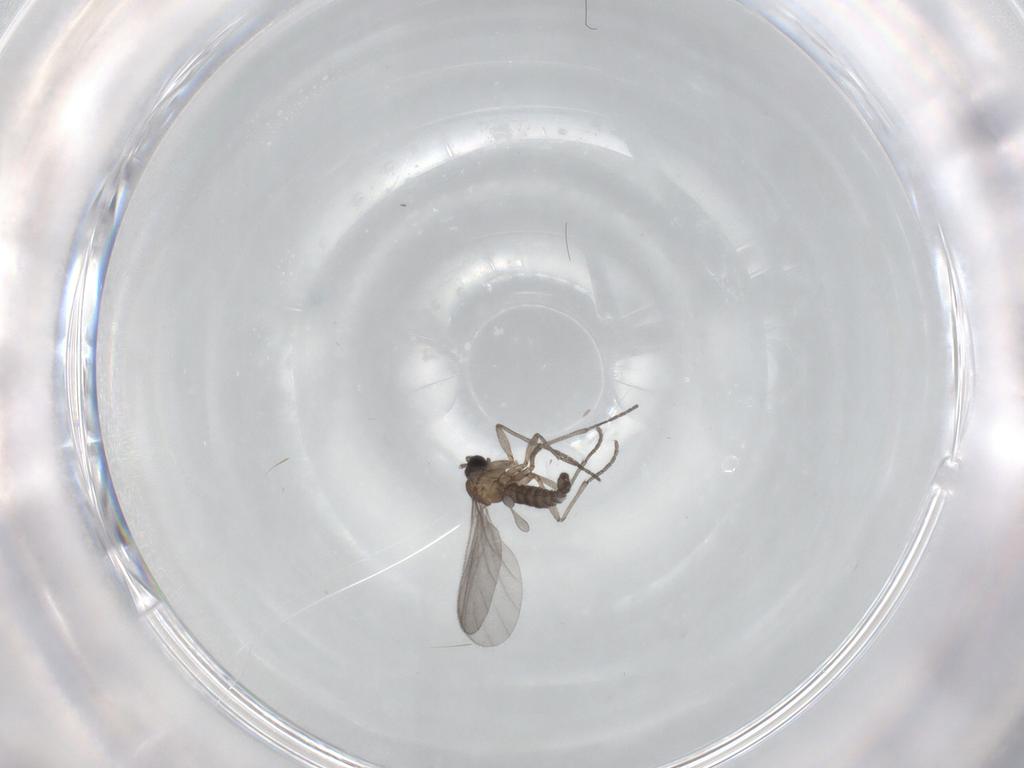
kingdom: Animalia
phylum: Arthropoda
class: Insecta
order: Diptera
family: Sciaridae
